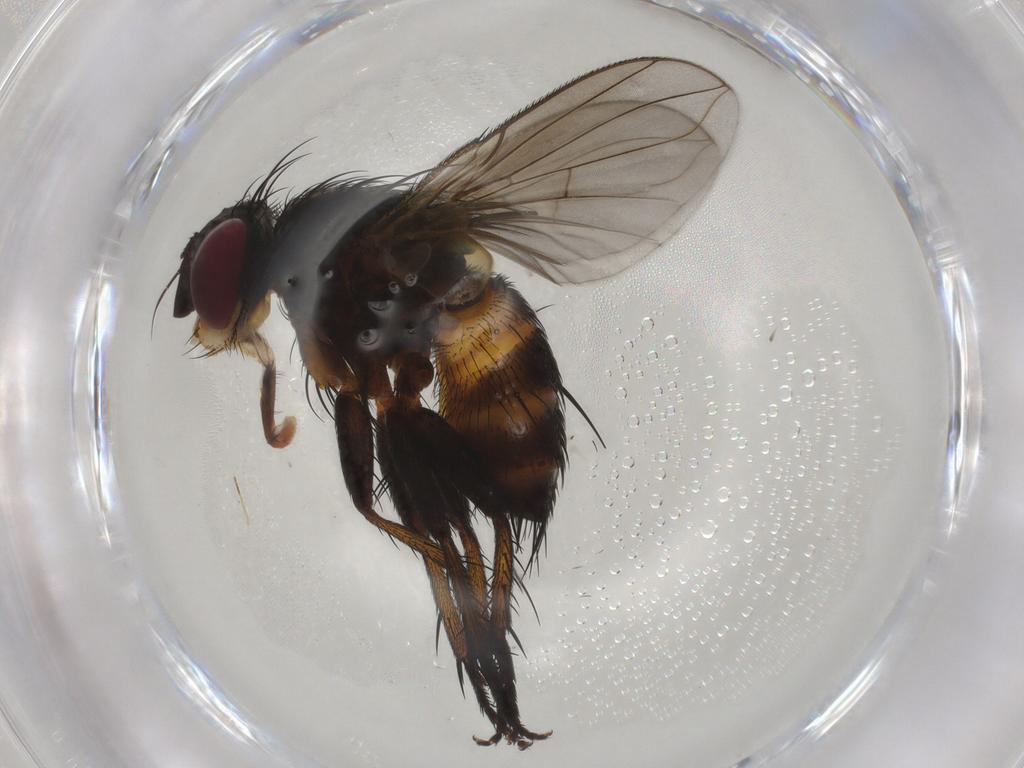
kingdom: Animalia
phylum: Arthropoda
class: Insecta
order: Diptera
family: Tachinidae
